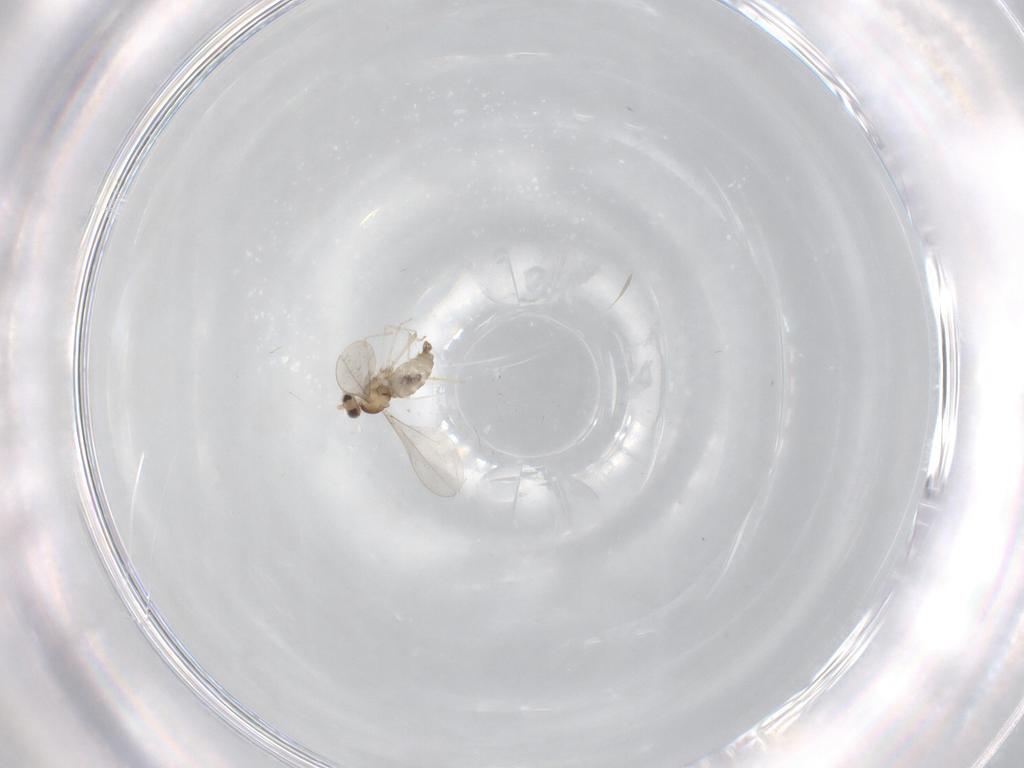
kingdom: Animalia
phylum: Arthropoda
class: Insecta
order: Diptera
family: Cecidomyiidae
